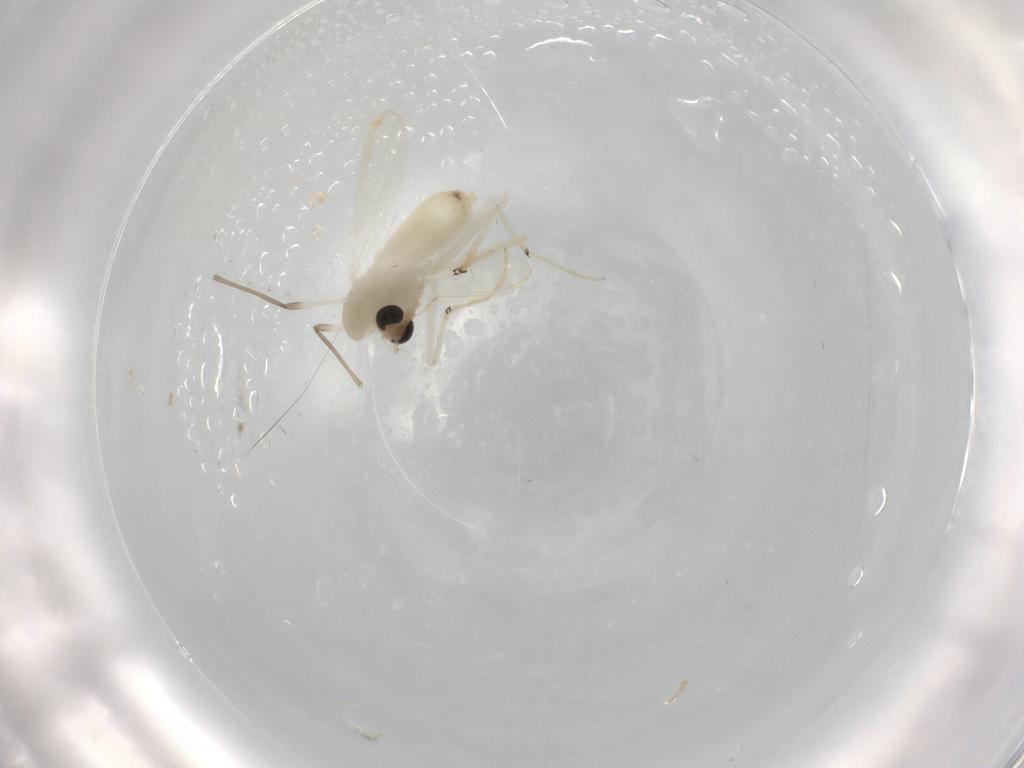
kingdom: Animalia
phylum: Arthropoda
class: Insecta
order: Diptera
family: Chironomidae
